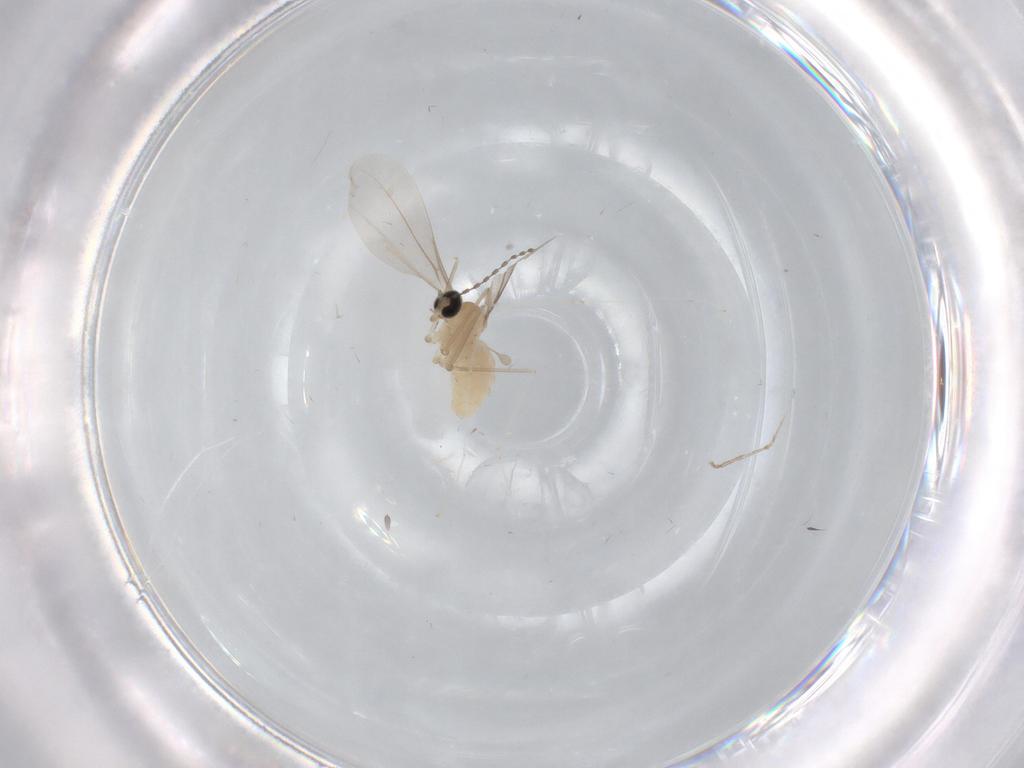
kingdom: Animalia
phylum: Arthropoda
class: Insecta
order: Diptera
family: Cecidomyiidae
